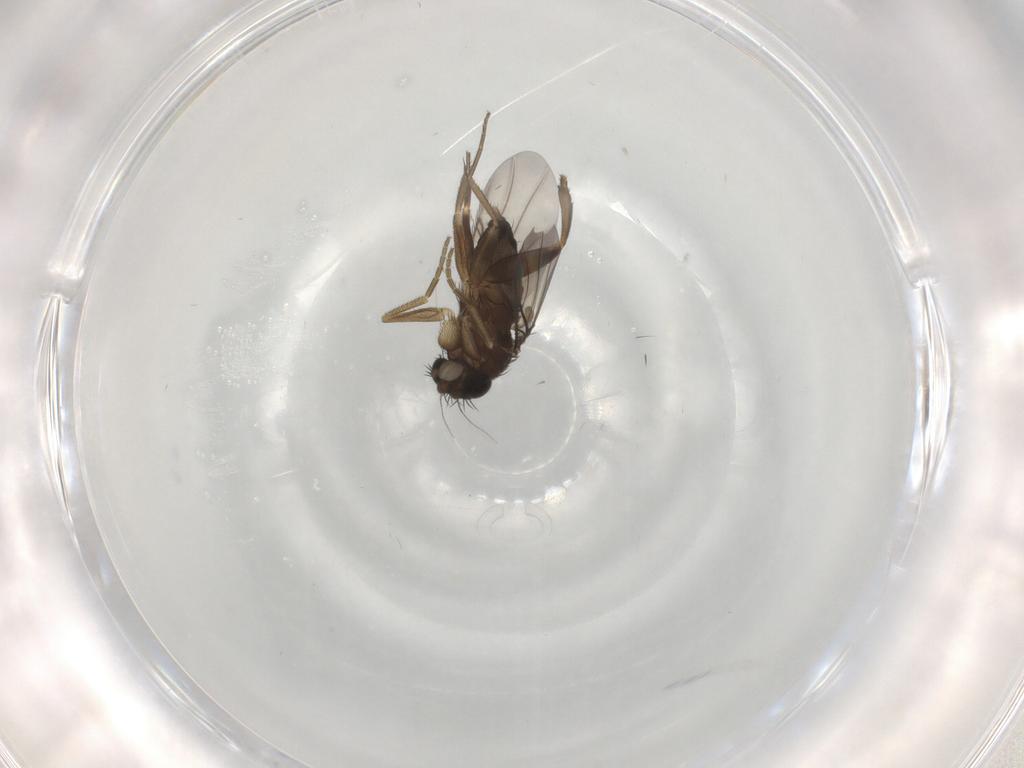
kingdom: Animalia
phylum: Arthropoda
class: Insecta
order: Diptera
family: Phoridae
